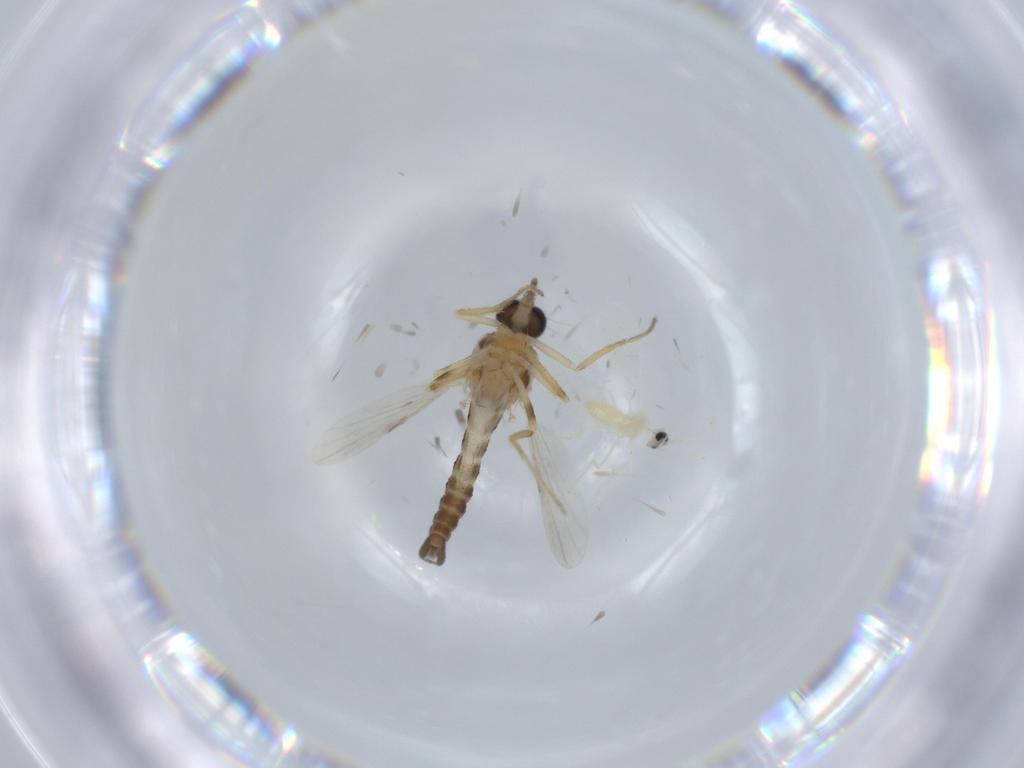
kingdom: Animalia
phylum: Arthropoda
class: Insecta
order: Diptera
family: Ceratopogonidae
